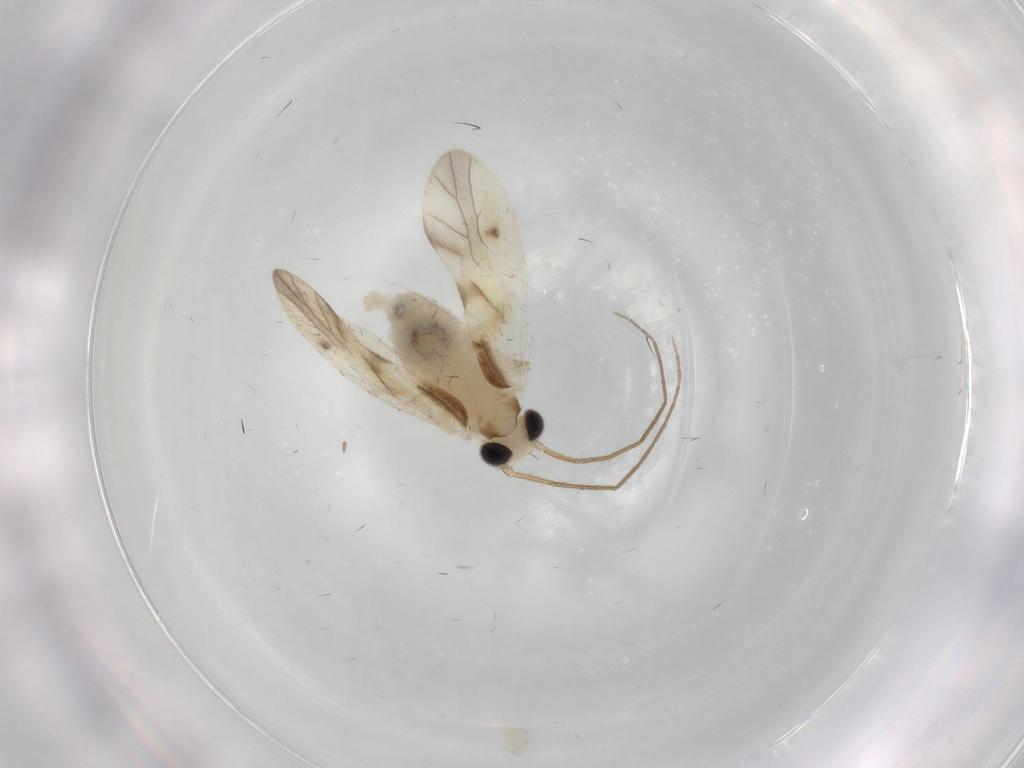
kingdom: Animalia
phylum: Arthropoda
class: Insecta
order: Psocodea
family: Caeciliusidae
